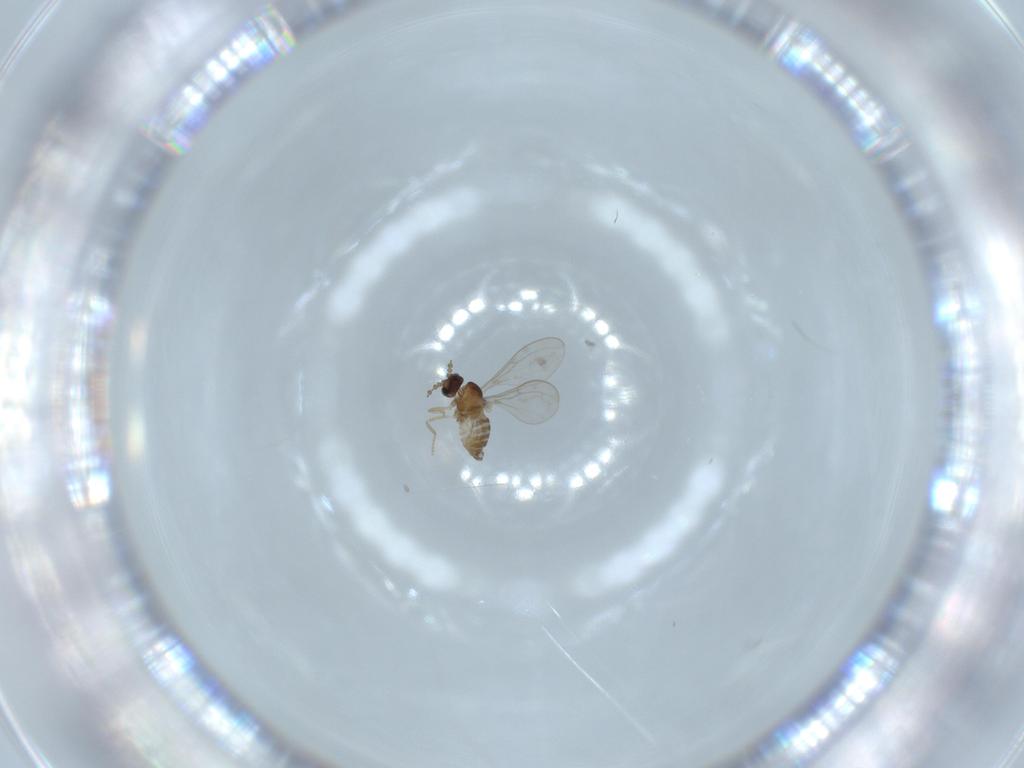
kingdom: Animalia
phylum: Arthropoda
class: Insecta
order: Diptera
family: Cecidomyiidae
